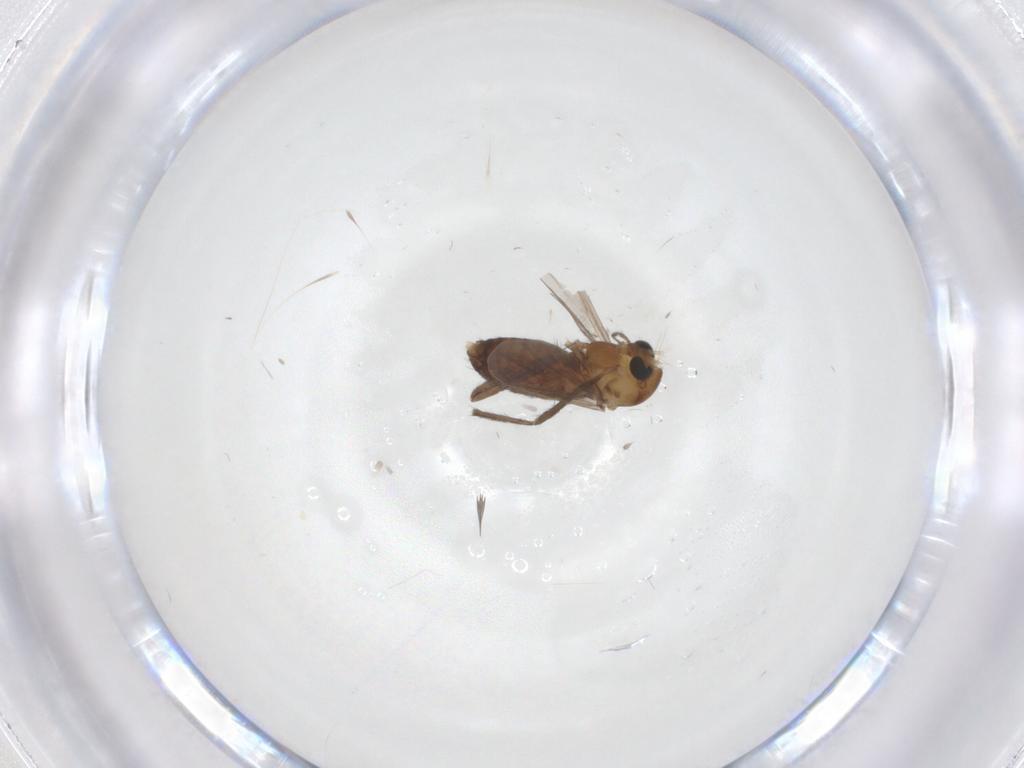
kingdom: Animalia
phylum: Arthropoda
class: Insecta
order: Diptera
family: Chironomidae
